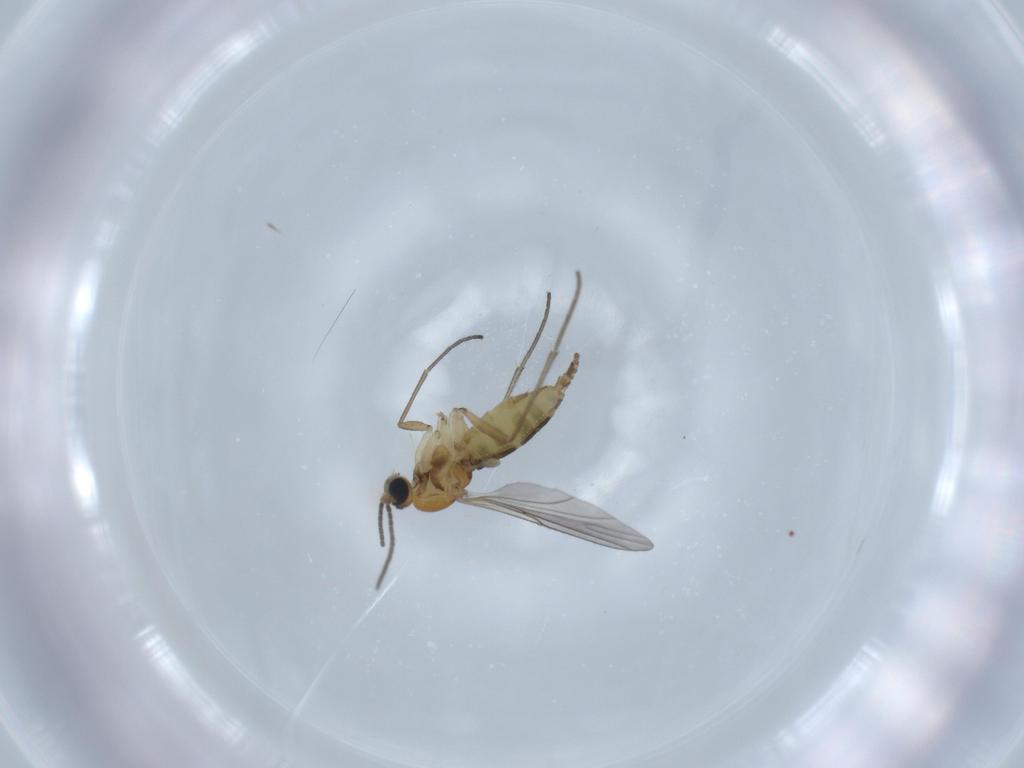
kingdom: Animalia
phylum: Arthropoda
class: Insecta
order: Diptera
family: Sciaridae
